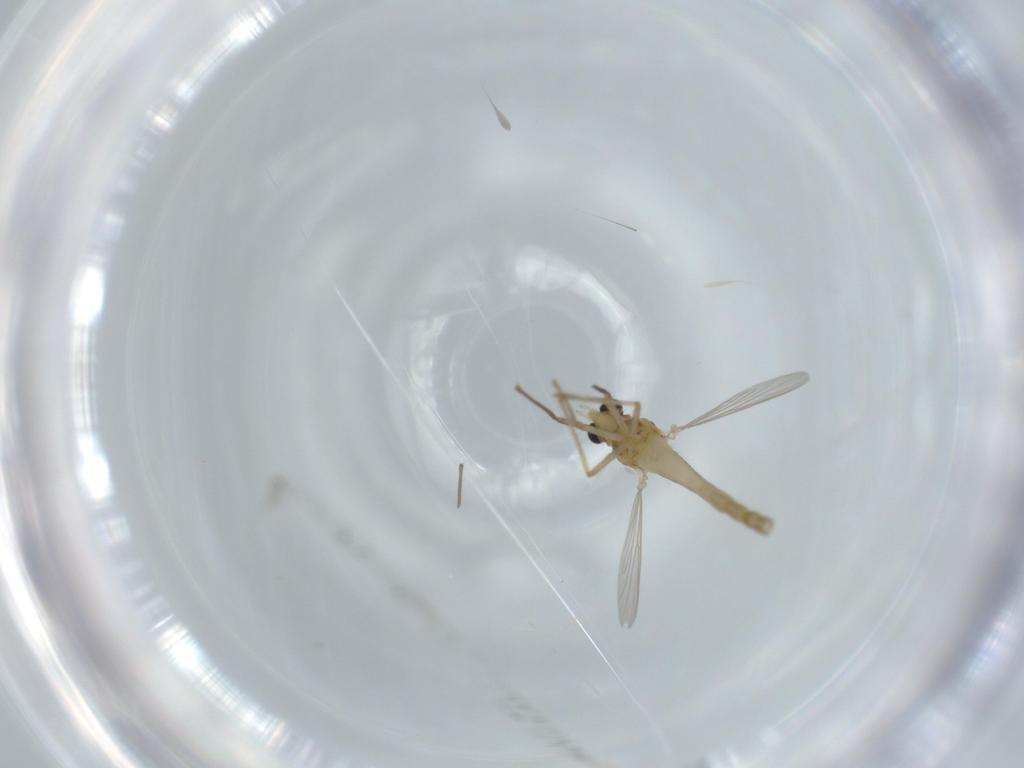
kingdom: Animalia
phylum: Arthropoda
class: Insecta
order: Diptera
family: Chironomidae
